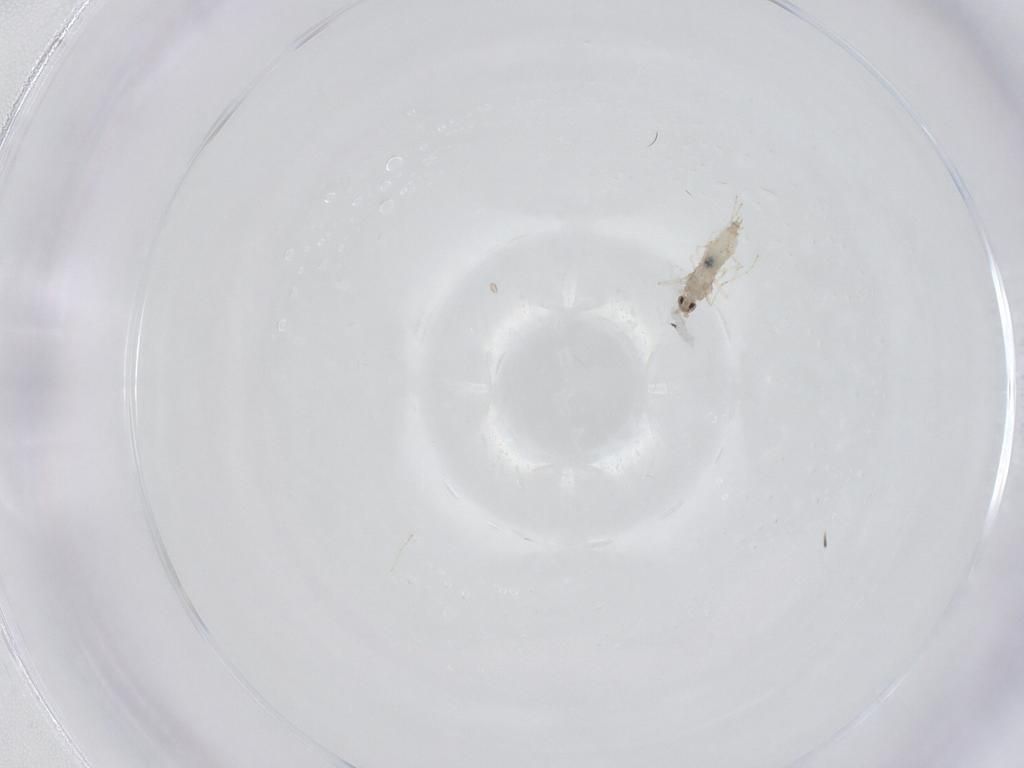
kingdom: Animalia
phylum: Arthropoda
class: Insecta
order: Diptera
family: Cecidomyiidae
